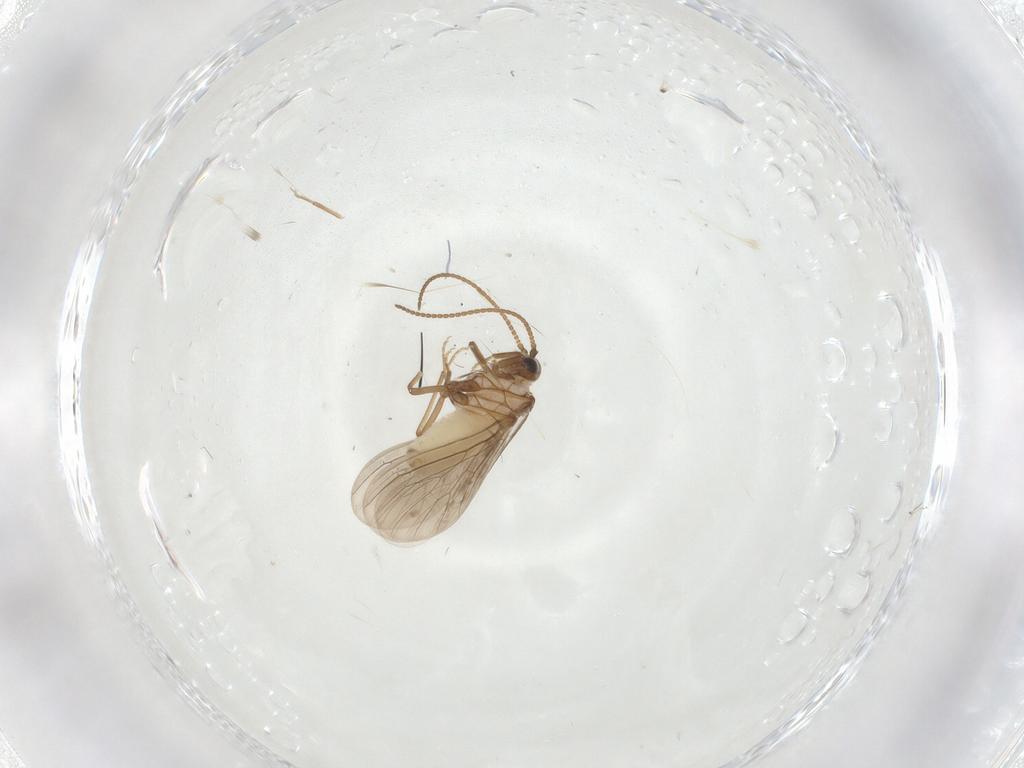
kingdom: Animalia
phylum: Arthropoda
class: Insecta
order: Neuroptera
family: Coniopterygidae
